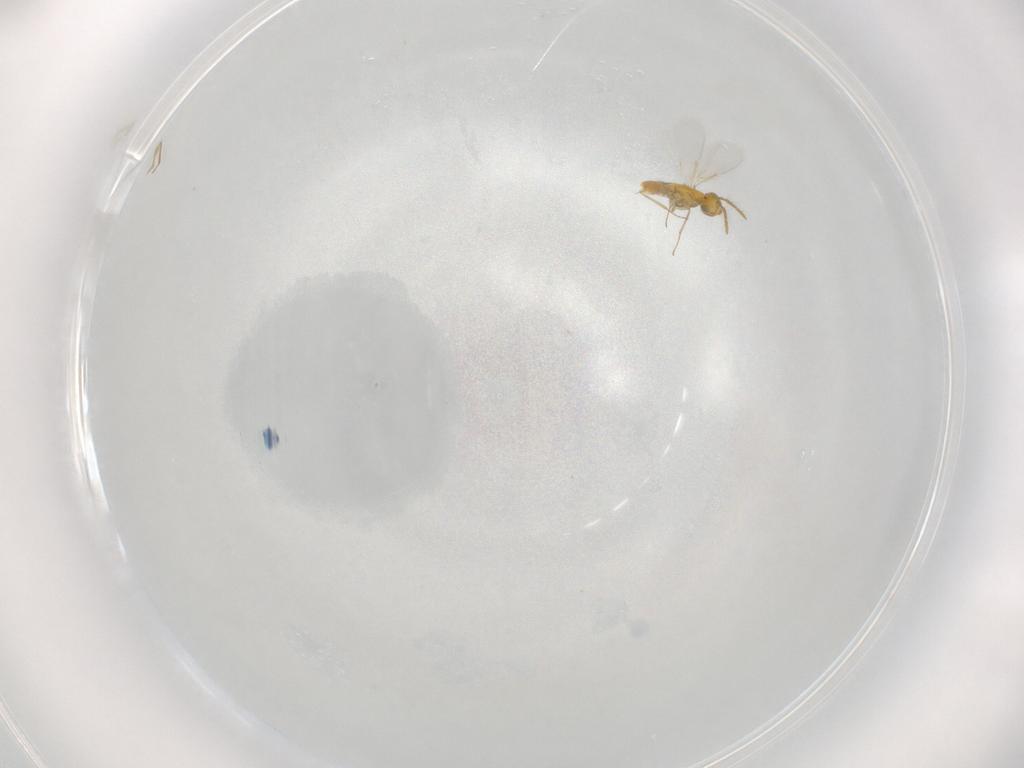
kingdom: Animalia
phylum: Arthropoda
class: Insecta
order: Hymenoptera
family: Aphelinidae
